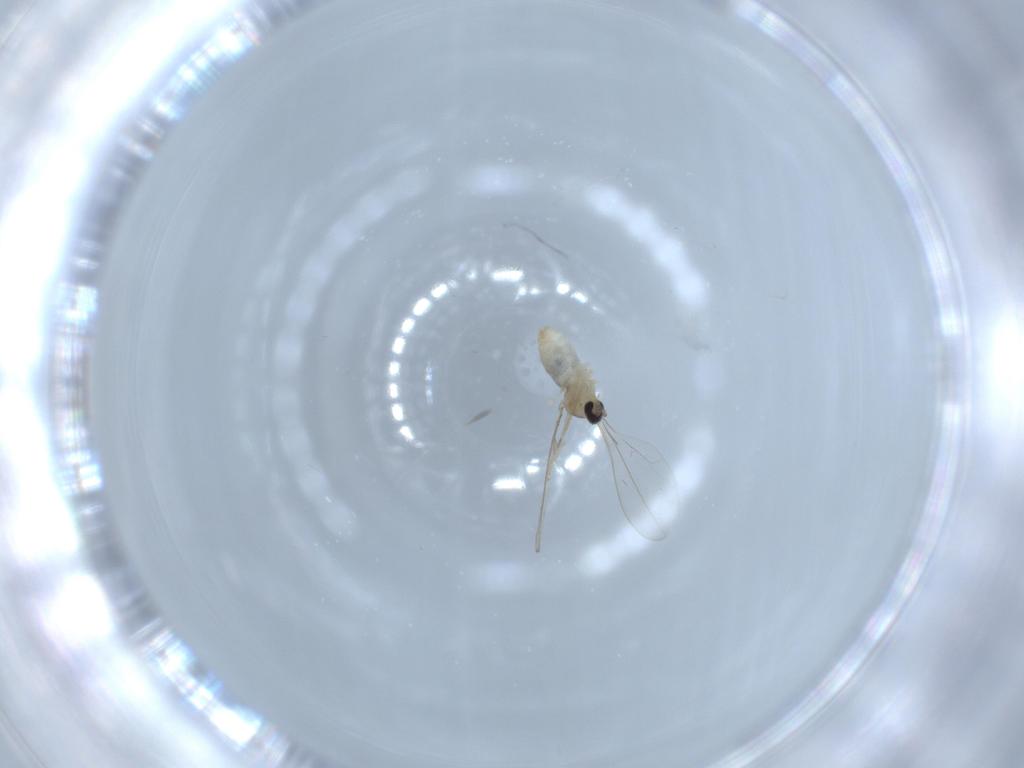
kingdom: Animalia
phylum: Arthropoda
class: Insecta
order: Diptera
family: Cecidomyiidae
